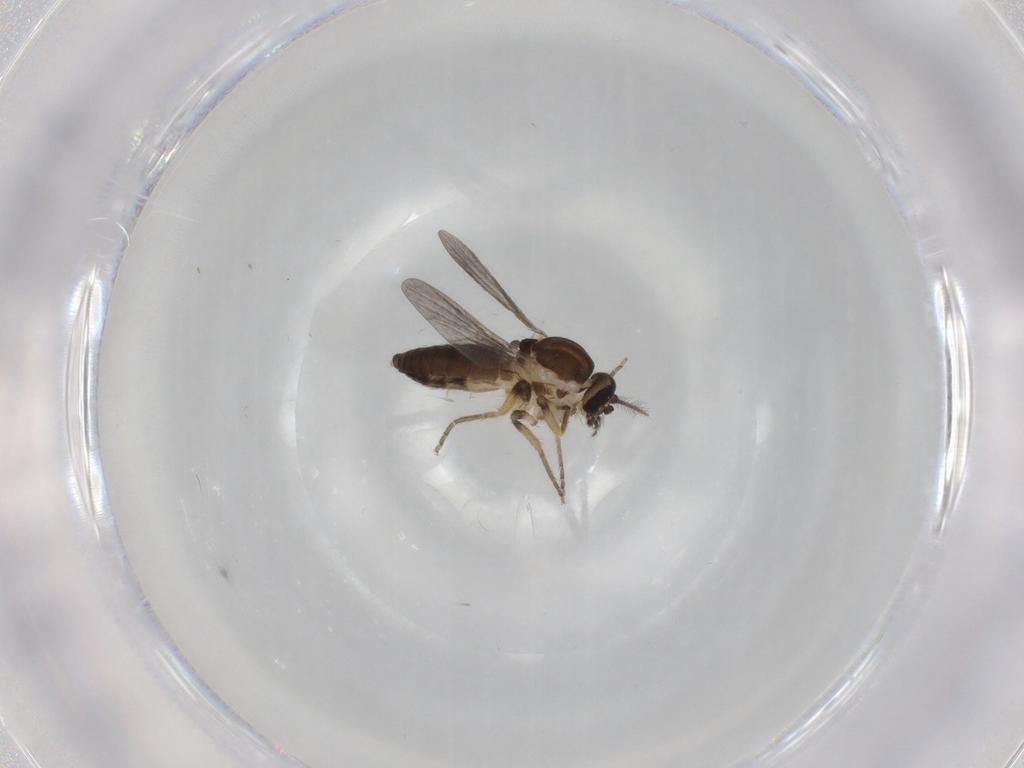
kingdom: Animalia
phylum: Arthropoda
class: Insecta
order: Diptera
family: Ceratopogonidae
